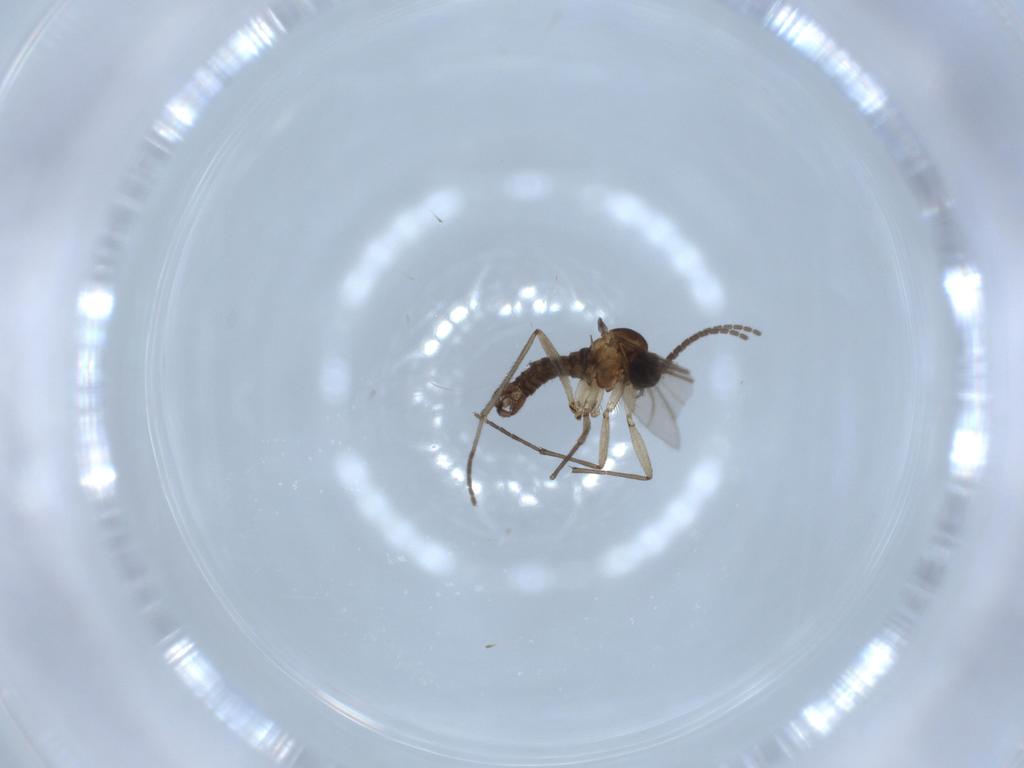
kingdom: Animalia
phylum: Arthropoda
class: Insecta
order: Diptera
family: Sciaridae
